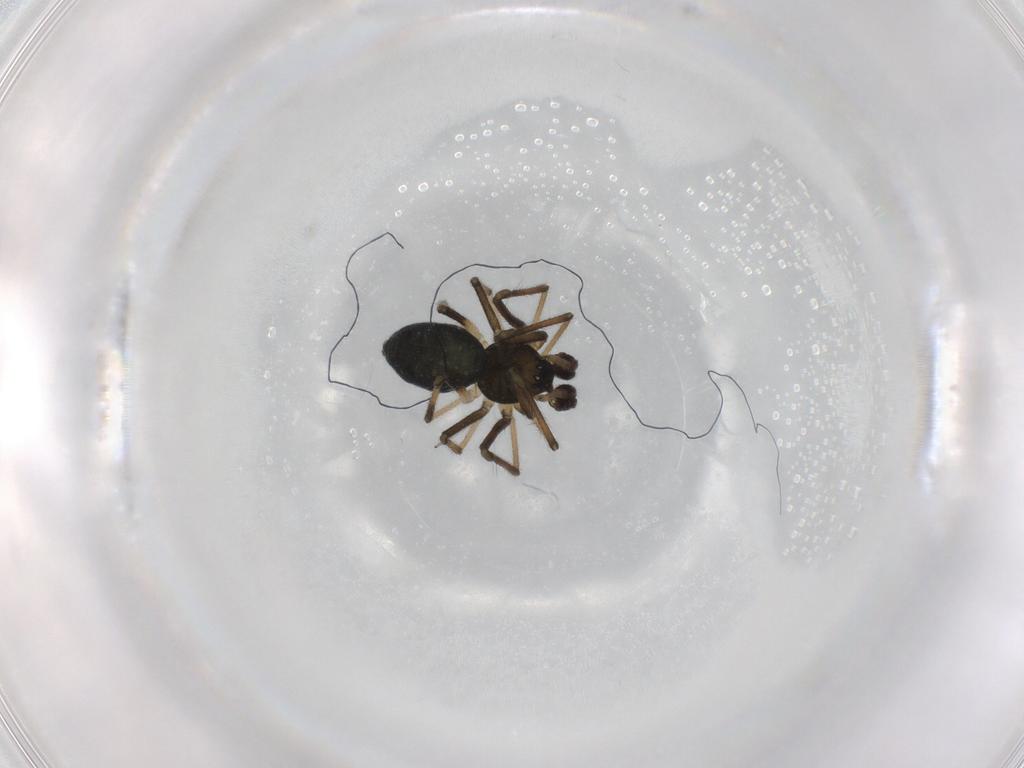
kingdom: Animalia
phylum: Arthropoda
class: Arachnida
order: Araneae
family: Linyphiidae
